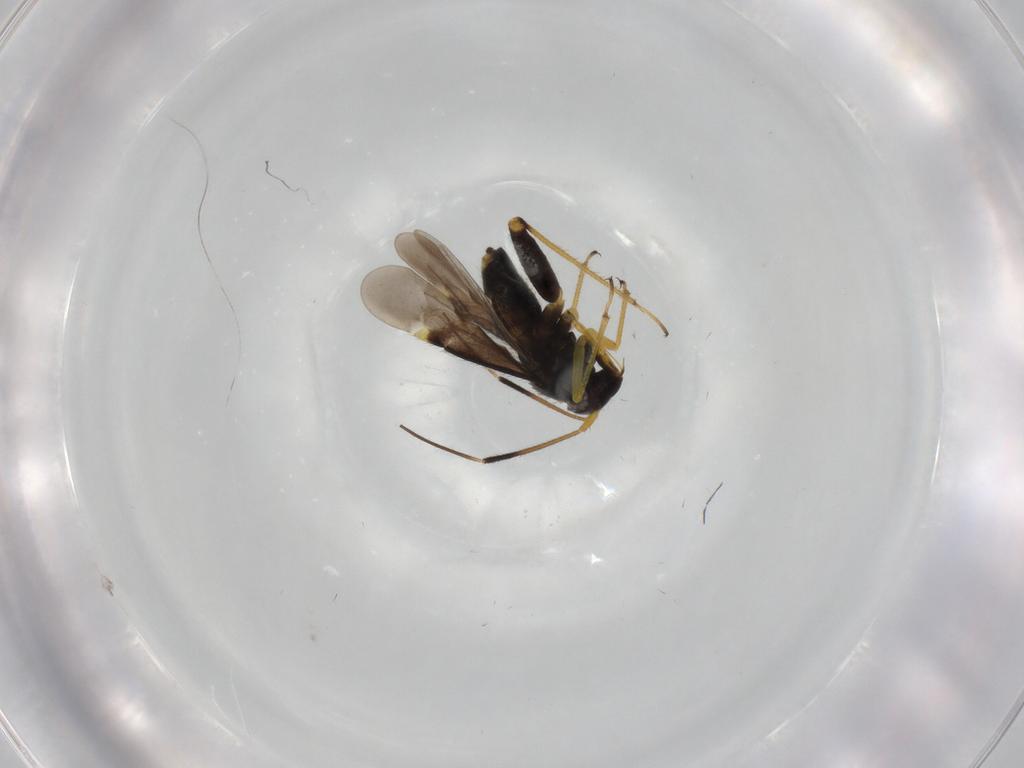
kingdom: Animalia
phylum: Arthropoda
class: Insecta
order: Hemiptera
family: Miridae
